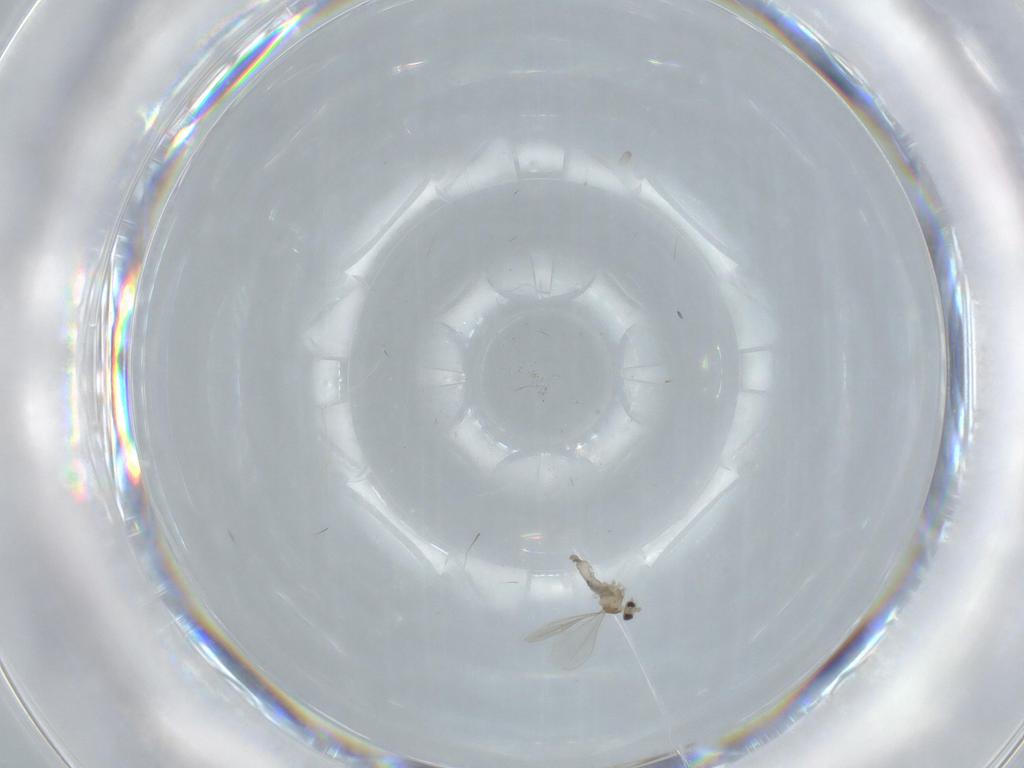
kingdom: Animalia
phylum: Arthropoda
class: Insecta
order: Diptera
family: Cecidomyiidae
